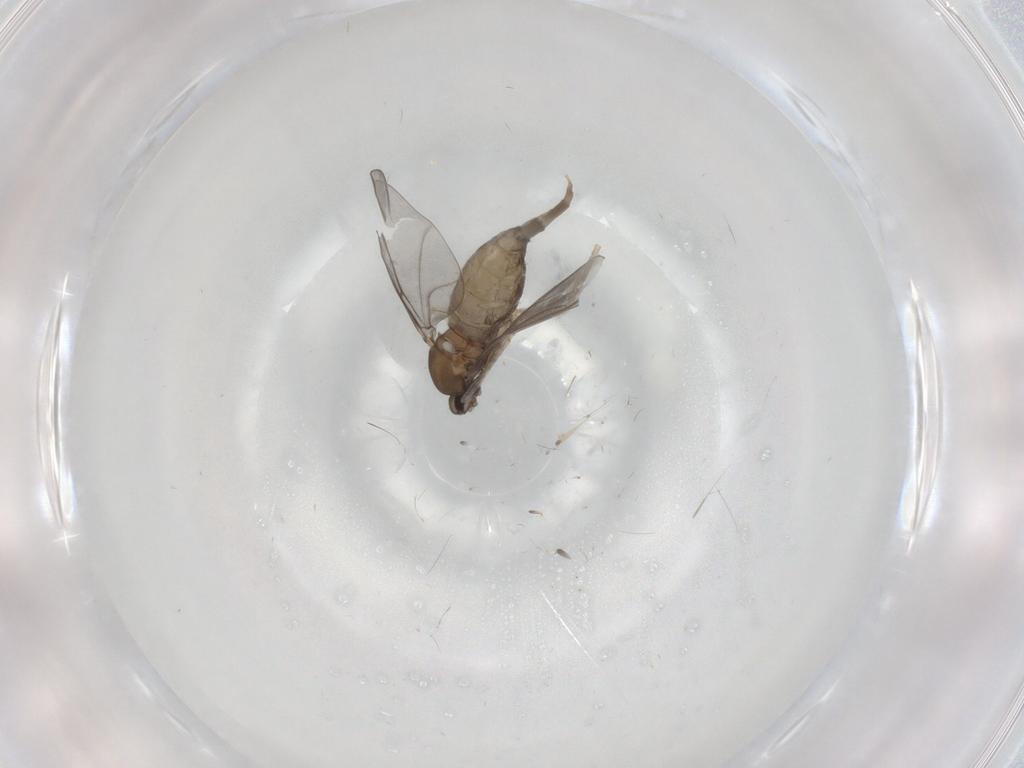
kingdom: Animalia
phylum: Arthropoda
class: Insecta
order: Diptera
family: Cecidomyiidae
